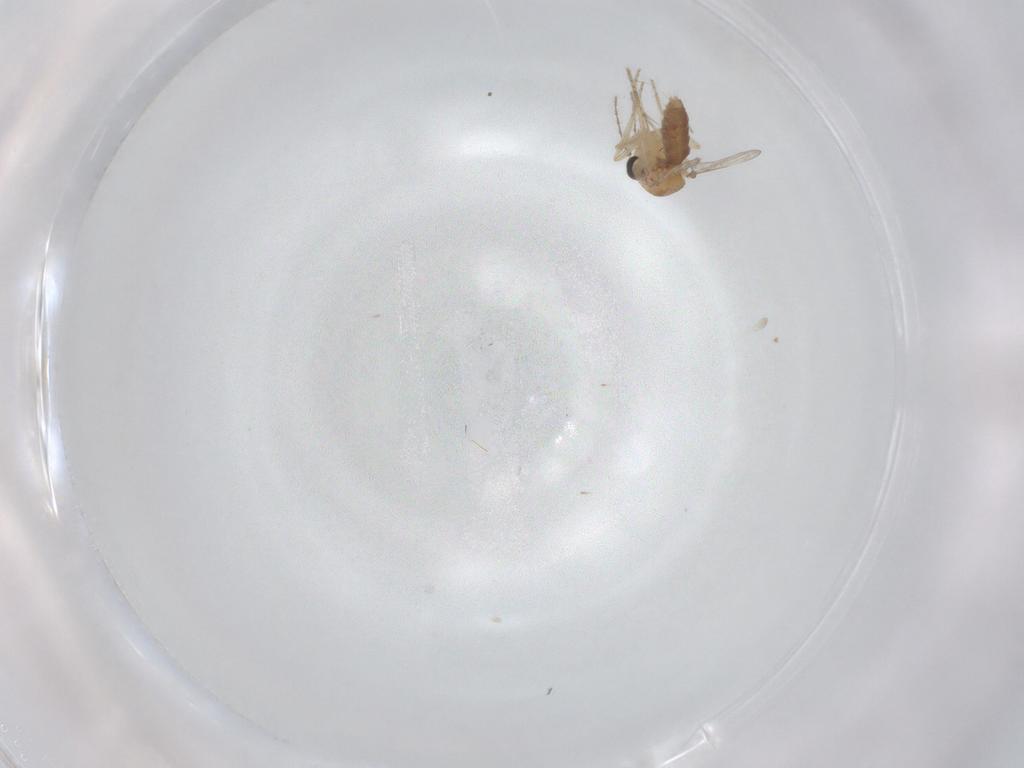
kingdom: Animalia
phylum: Arthropoda
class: Insecta
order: Diptera
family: Ceratopogonidae
